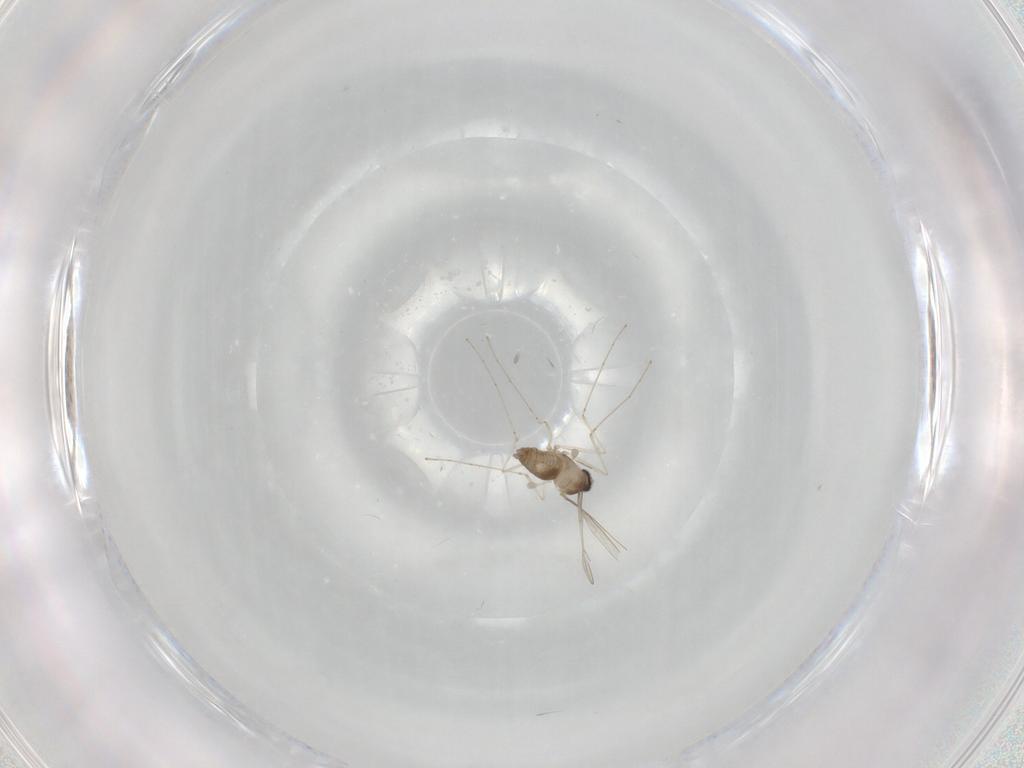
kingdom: Animalia
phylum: Arthropoda
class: Insecta
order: Diptera
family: Cecidomyiidae
